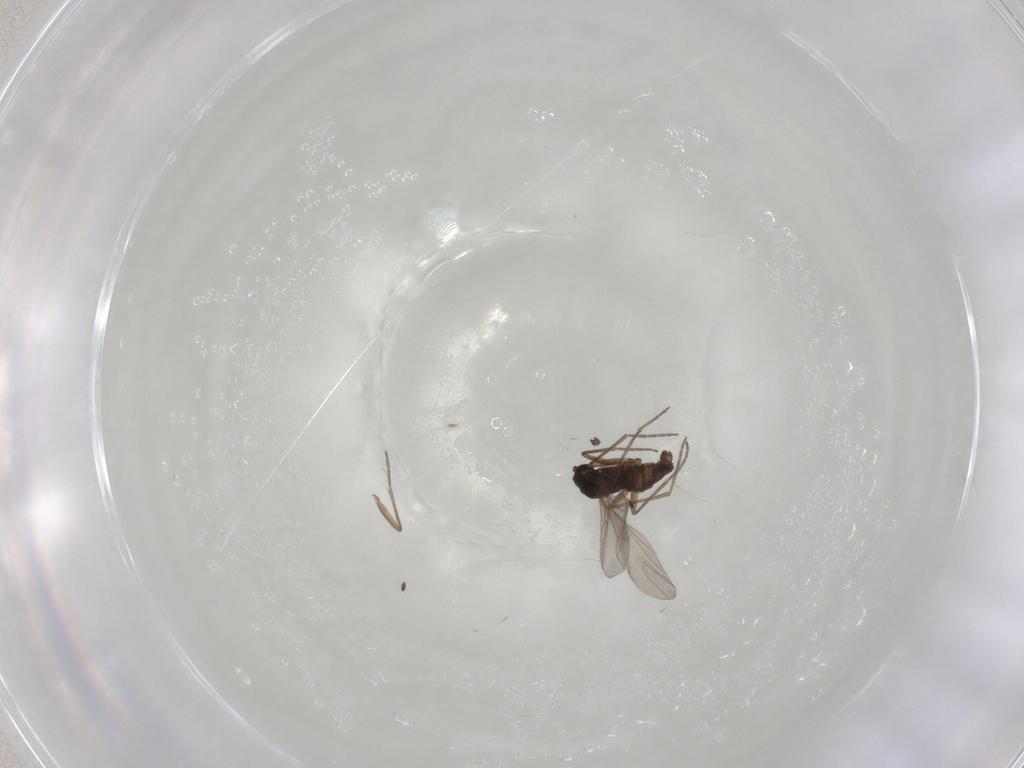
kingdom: Animalia
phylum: Arthropoda
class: Insecta
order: Diptera
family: Sciaridae
